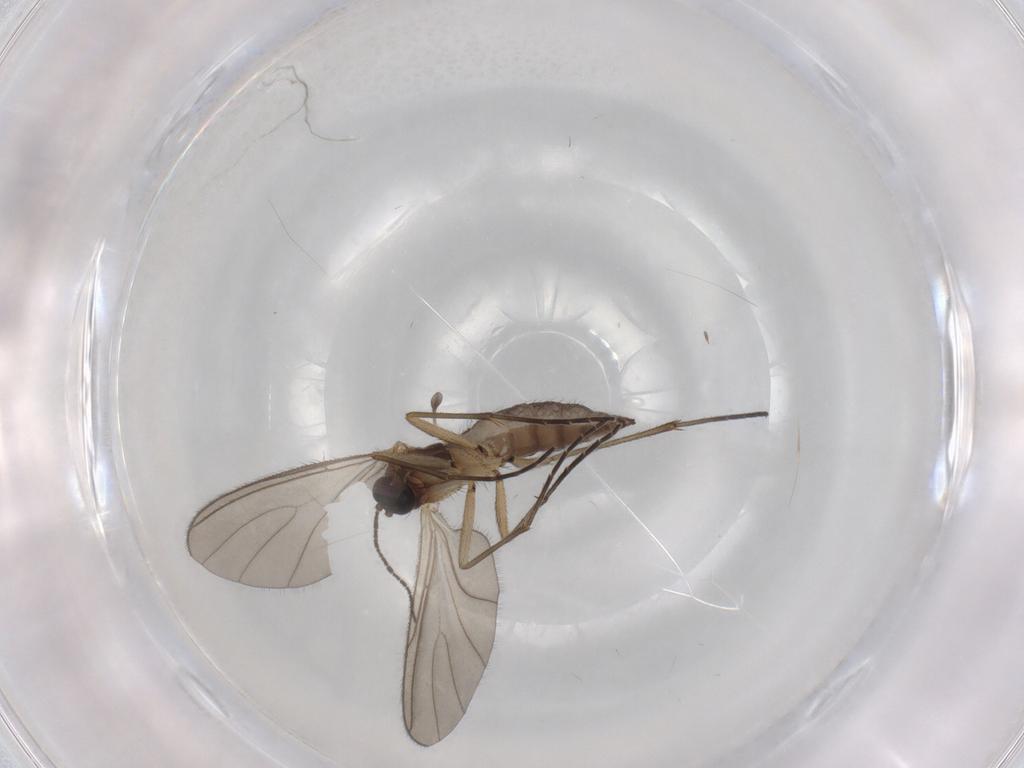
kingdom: Animalia
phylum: Arthropoda
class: Insecta
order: Diptera
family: Sciaridae
